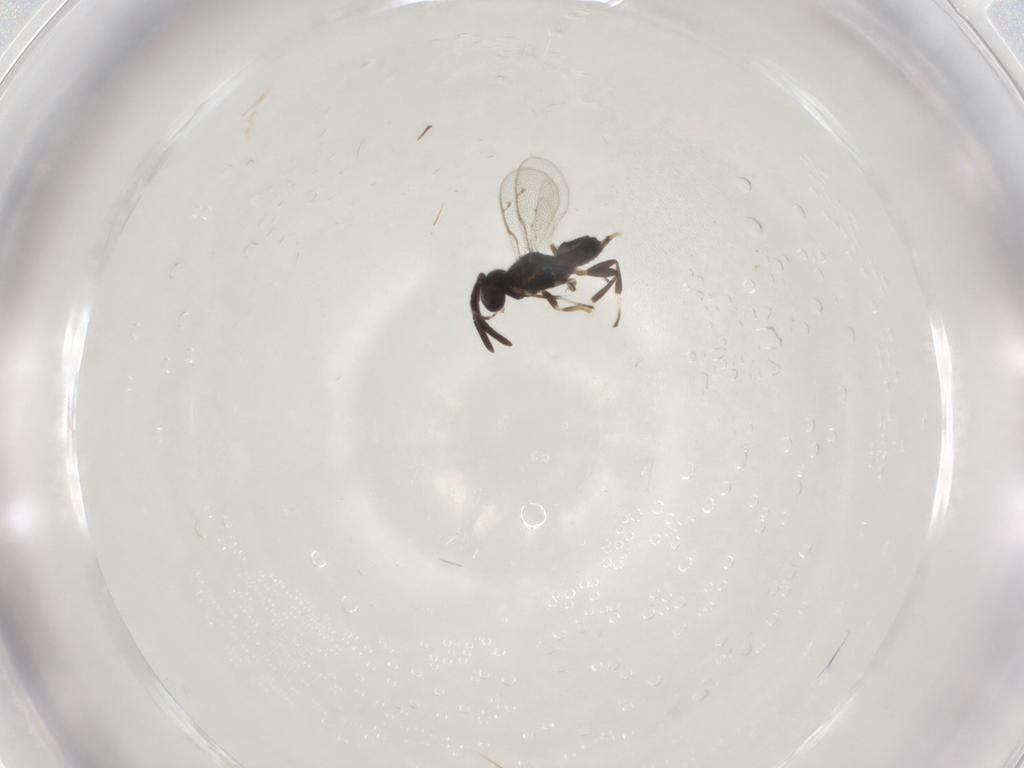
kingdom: Animalia
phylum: Arthropoda
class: Insecta
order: Hymenoptera
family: Eupelmidae
